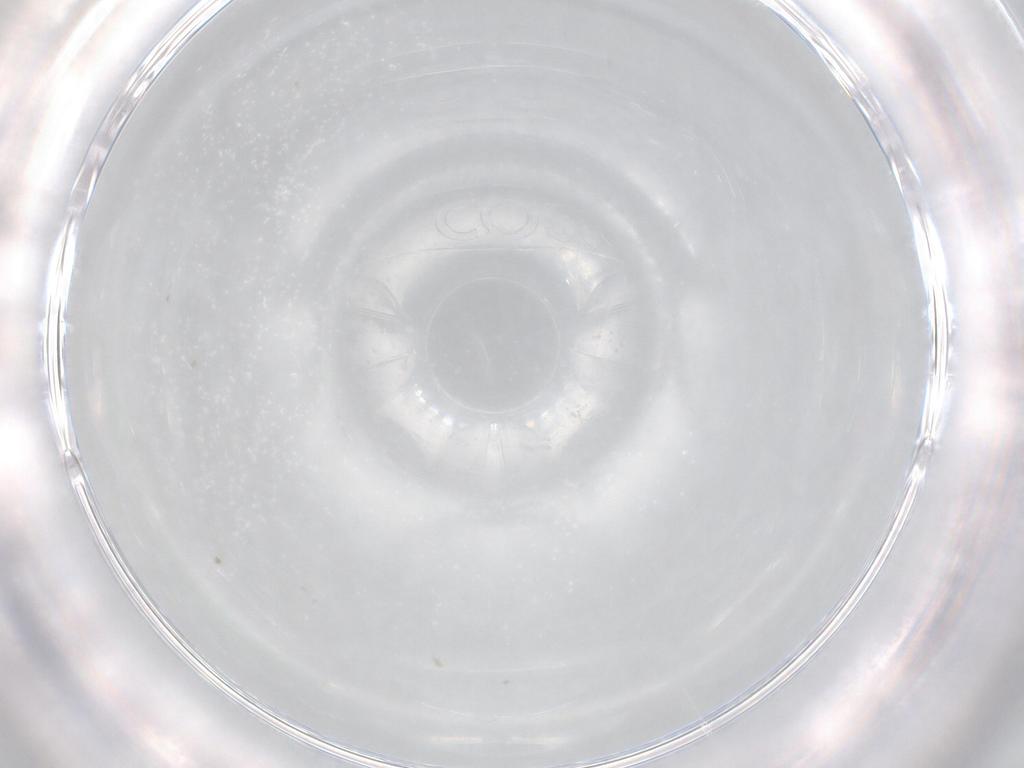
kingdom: Animalia
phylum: Arthropoda
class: Insecta
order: Diptera
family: Chironomidae
